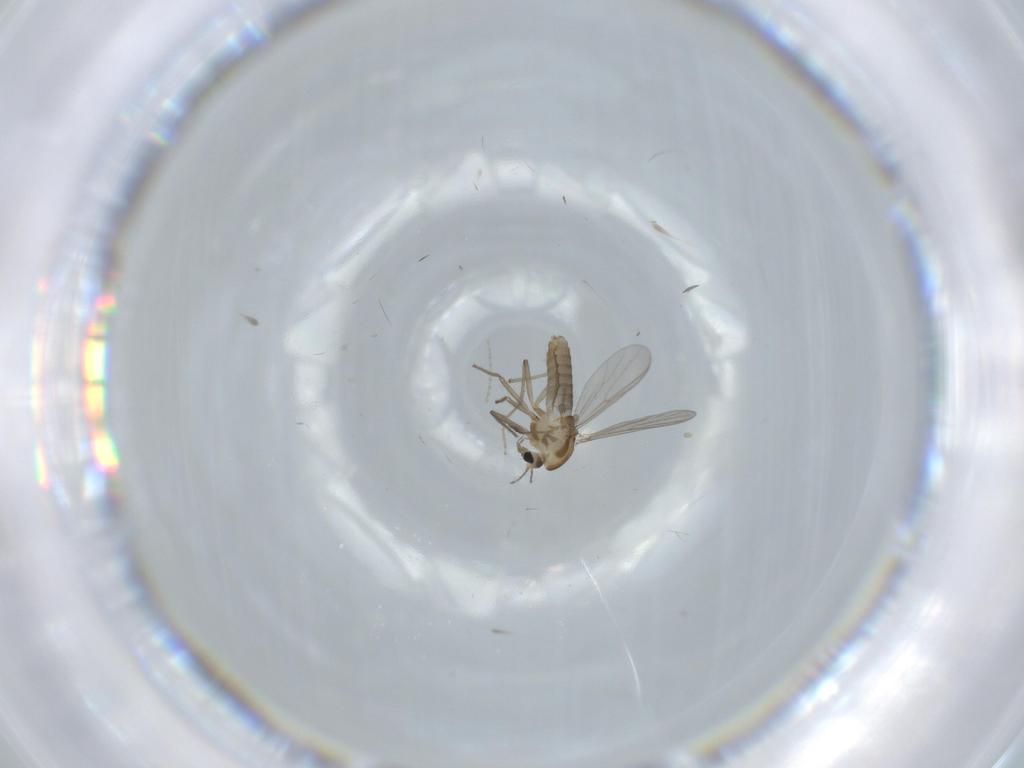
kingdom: Animalia
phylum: Arthropoda
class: Insecta
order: Diptera
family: Chironomidae
